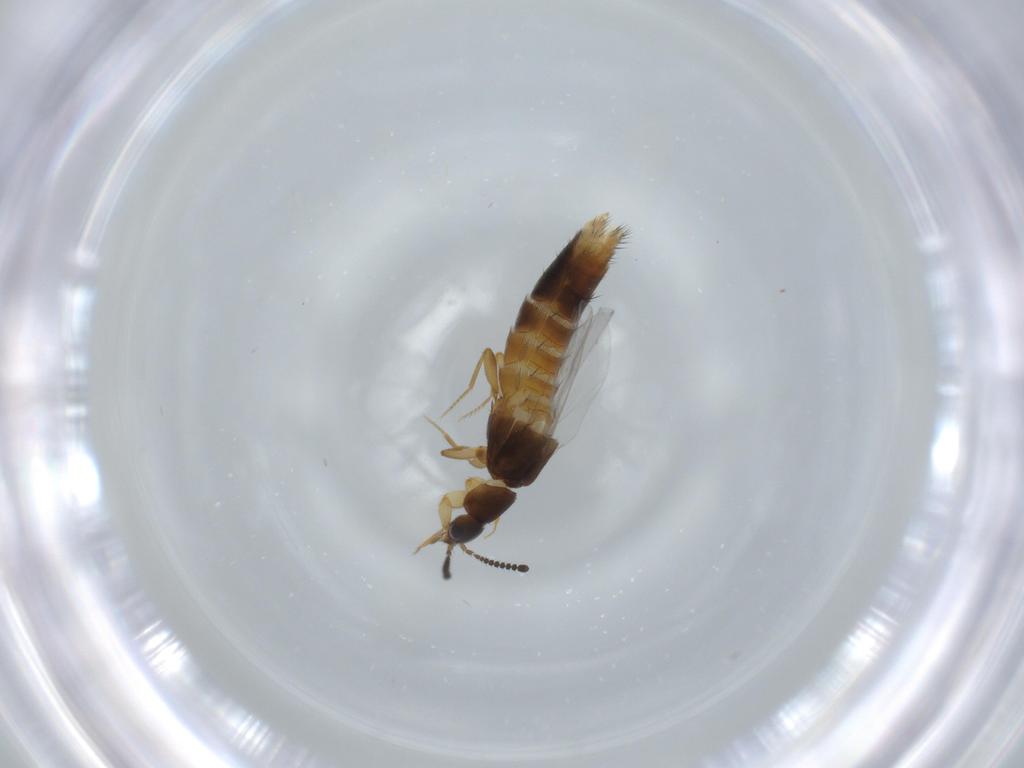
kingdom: Animalia
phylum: Arthropoda
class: Insecta
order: Coleoptera
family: Staphylinidae
